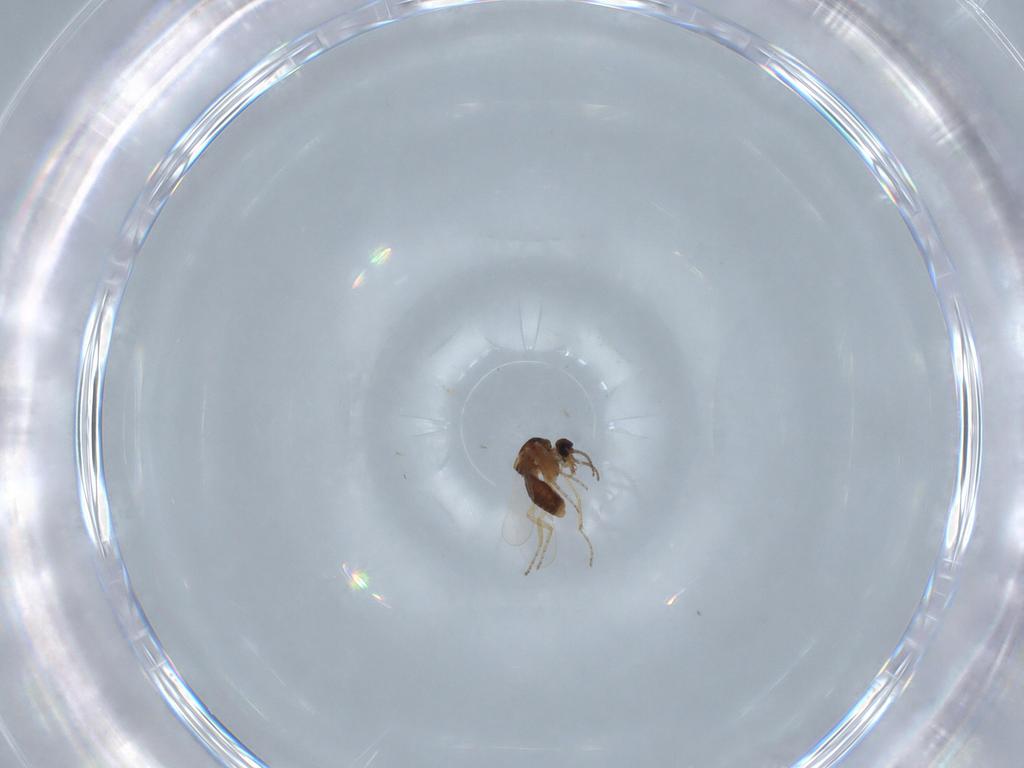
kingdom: Animalia
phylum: Arthropoda
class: Insecta
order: Diptera
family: Ceratopogonidae
